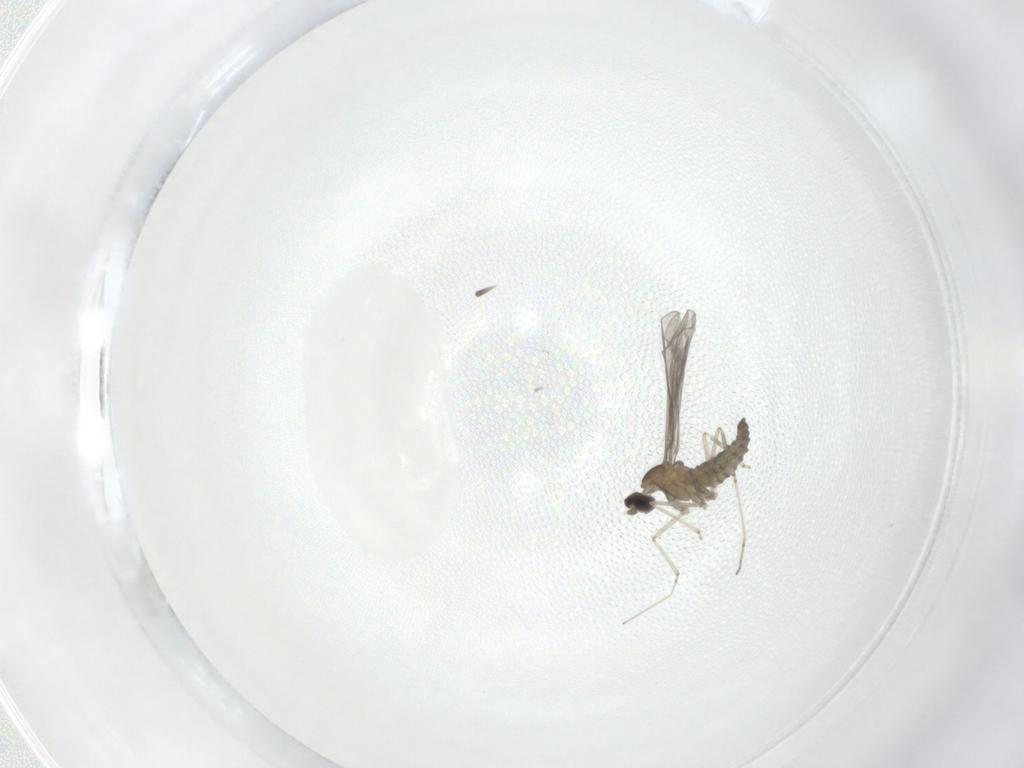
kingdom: Animalia
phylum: Arthropoda
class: Insecta
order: Diptera
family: Cecidomyiidae
